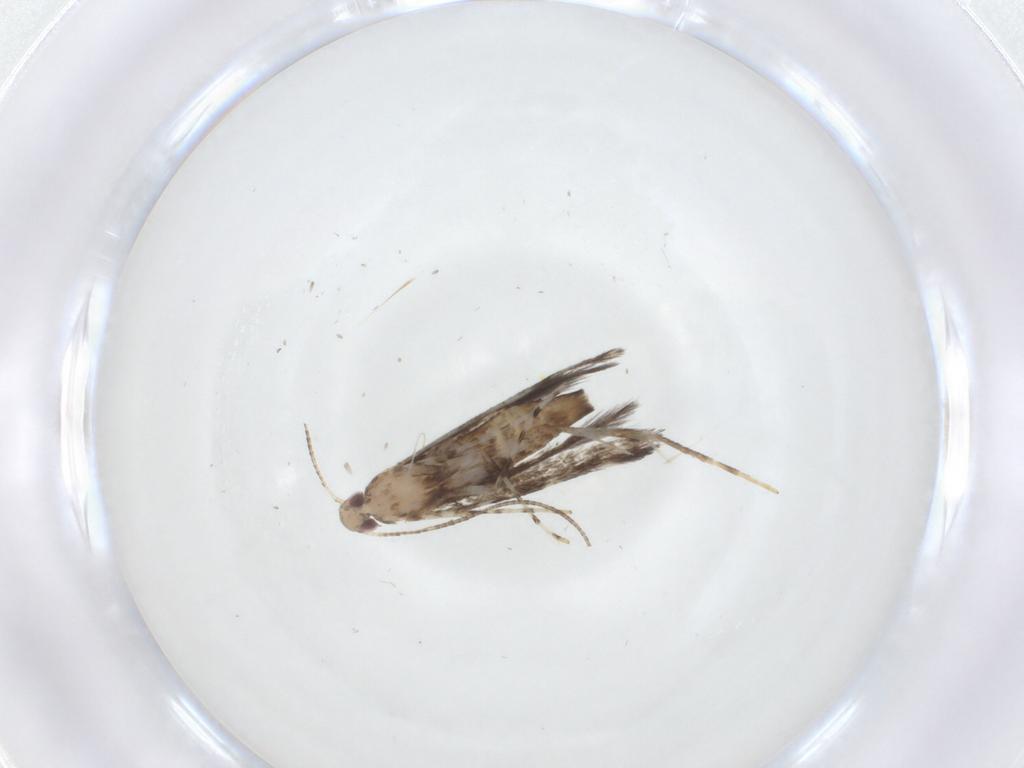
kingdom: Animalia
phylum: Arthropoda
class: Insecta
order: Lepidoptera
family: Gracillariidae
